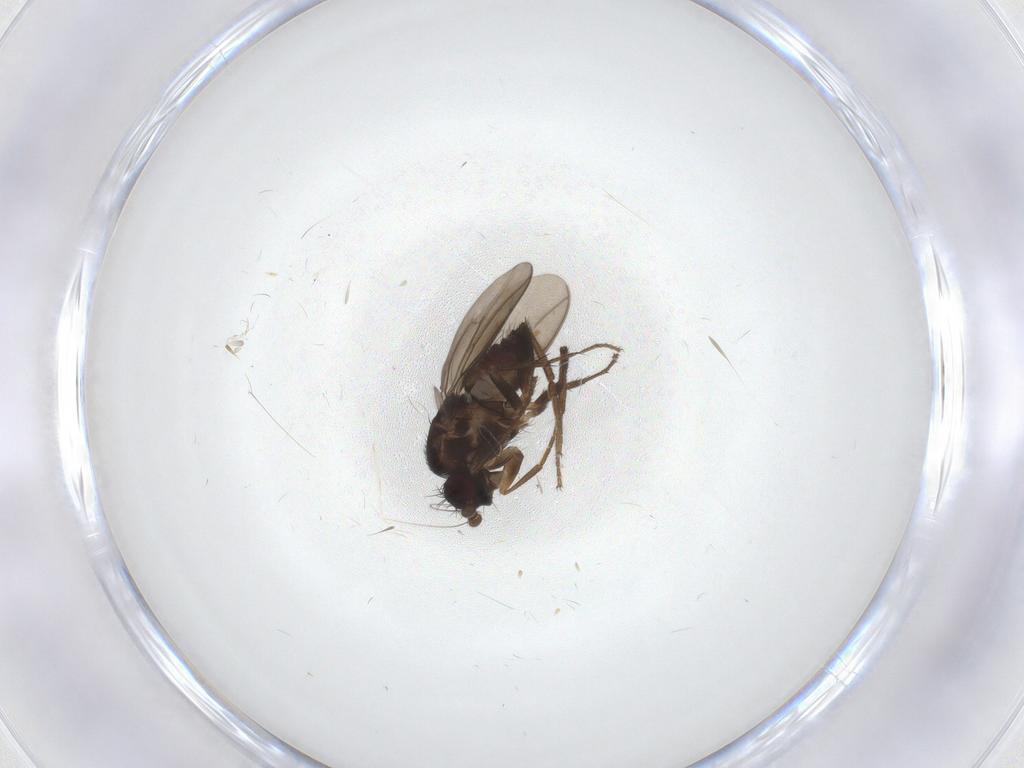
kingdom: Animalia
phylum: Arthropoda
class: Insecta
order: Diptera
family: Sphaeroceridae
